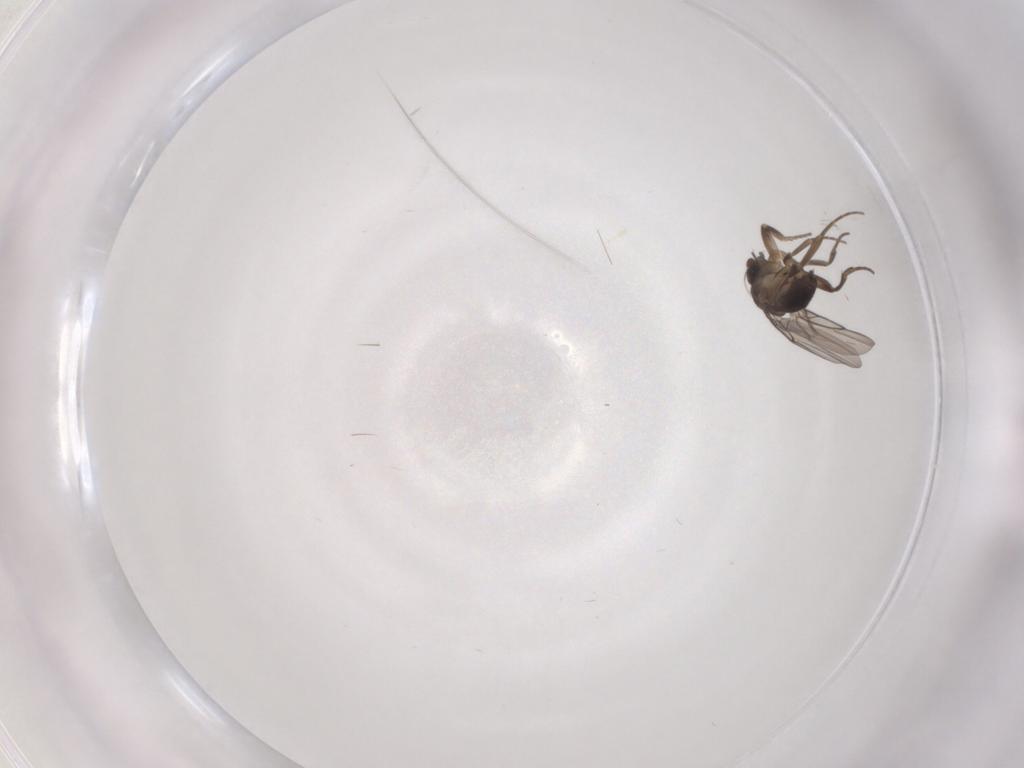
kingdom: Animalia
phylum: Arthropoda
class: Insecta
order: Diptera
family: Phoridae
